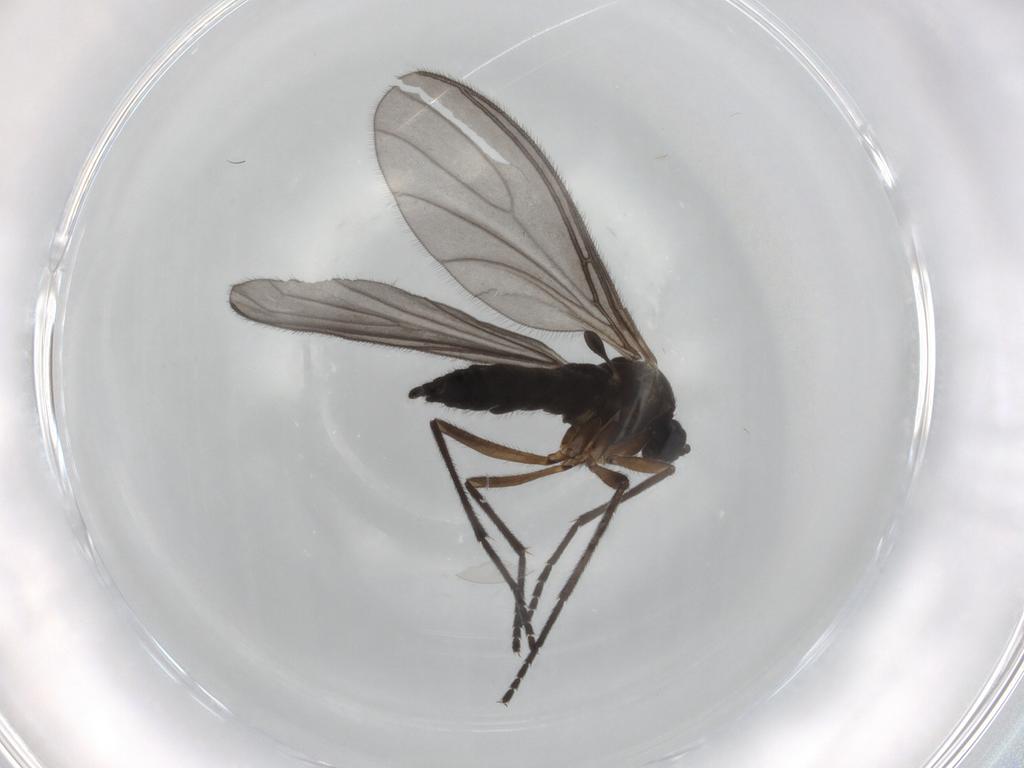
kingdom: Animalia
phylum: Arthropoda
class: Insecta
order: Diptera
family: Sciaridae
